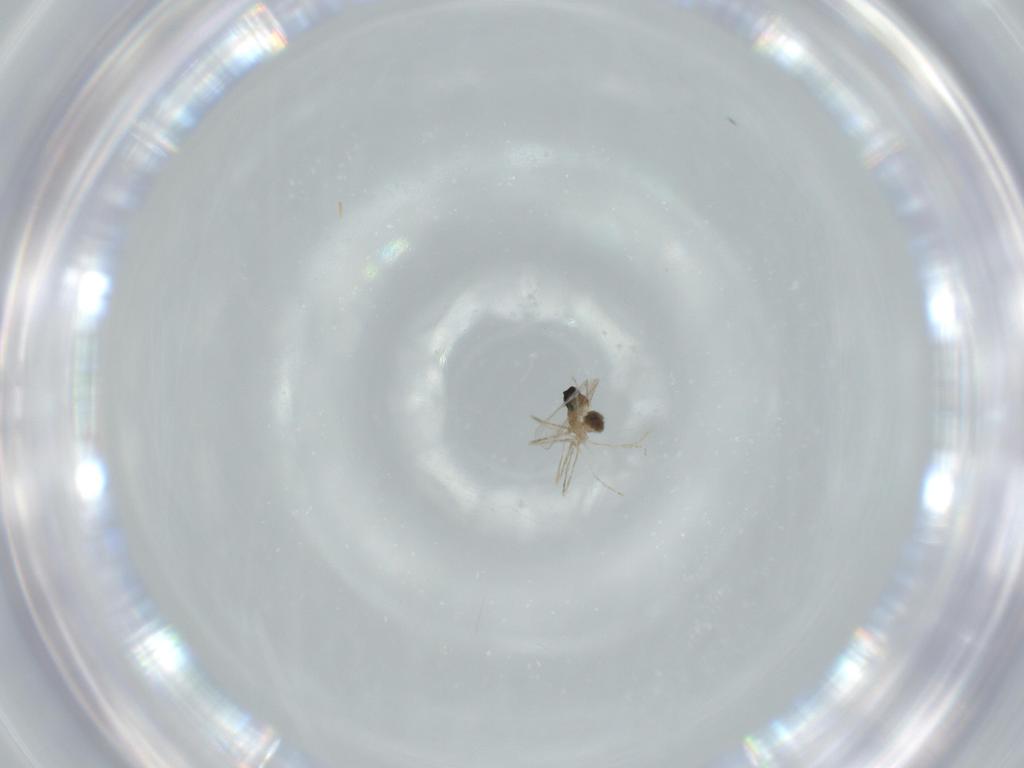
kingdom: Animalia
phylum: Arthropoda
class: Insecta
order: Diptera
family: Cecidomyiidae
